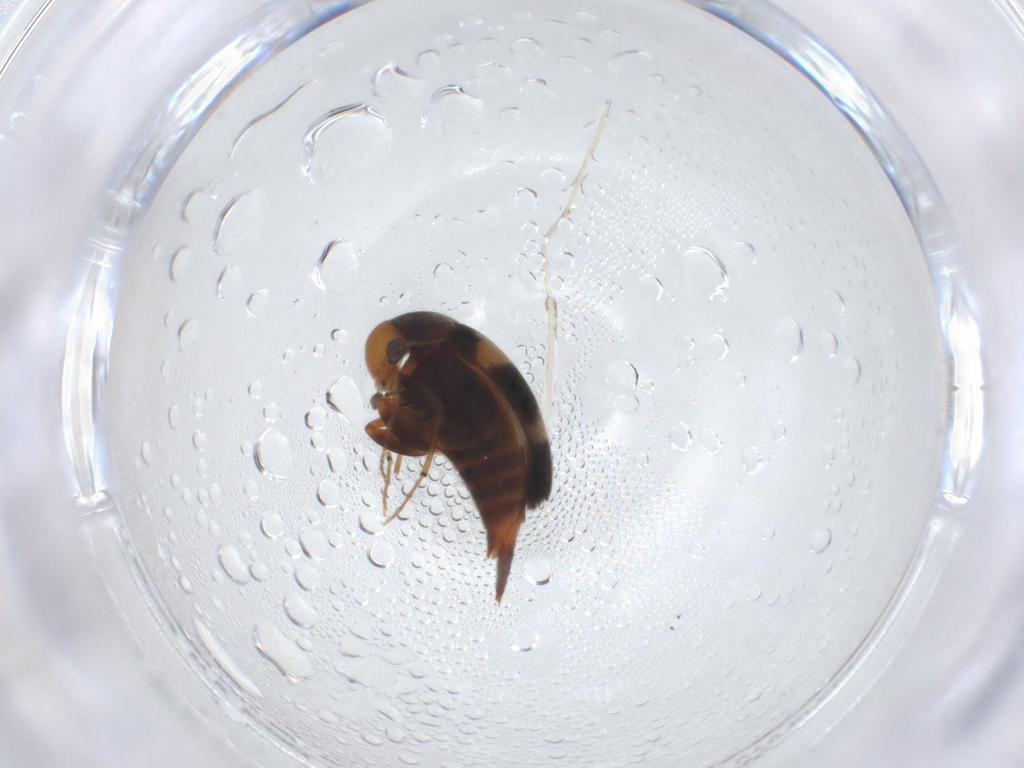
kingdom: Animalia
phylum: Arthropoda
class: Insecta
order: Coleoptera
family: Mordellidae
